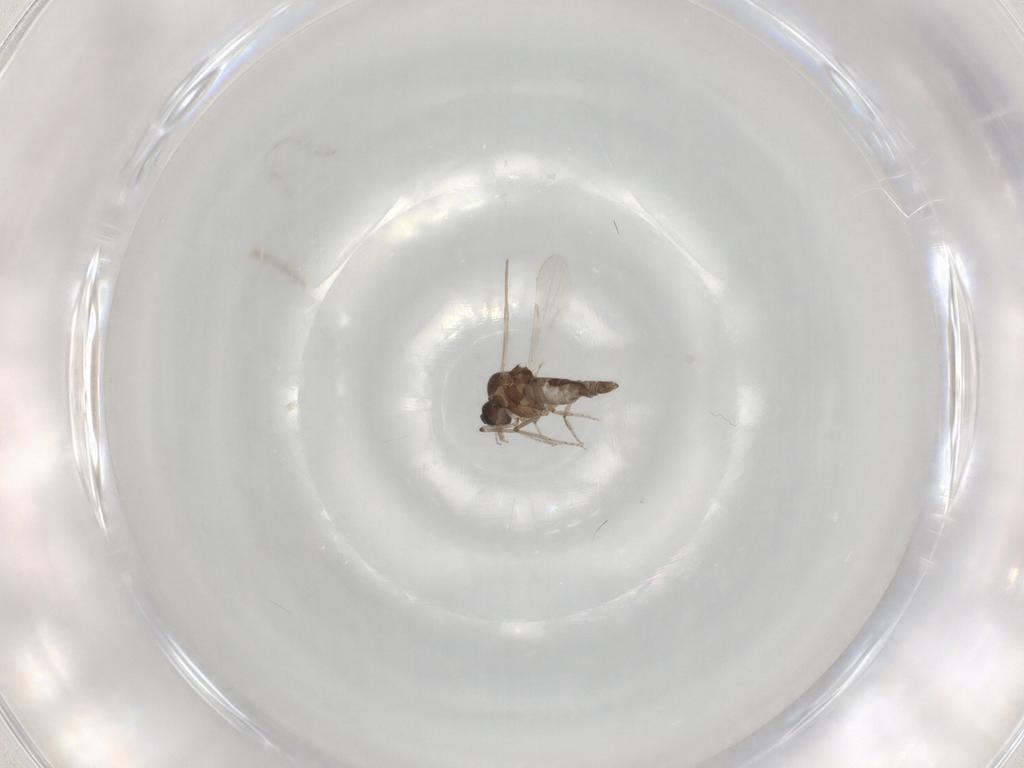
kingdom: Animalia
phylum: Arthropoda
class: Insecta
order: Diptera
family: Ceratopogonidae
